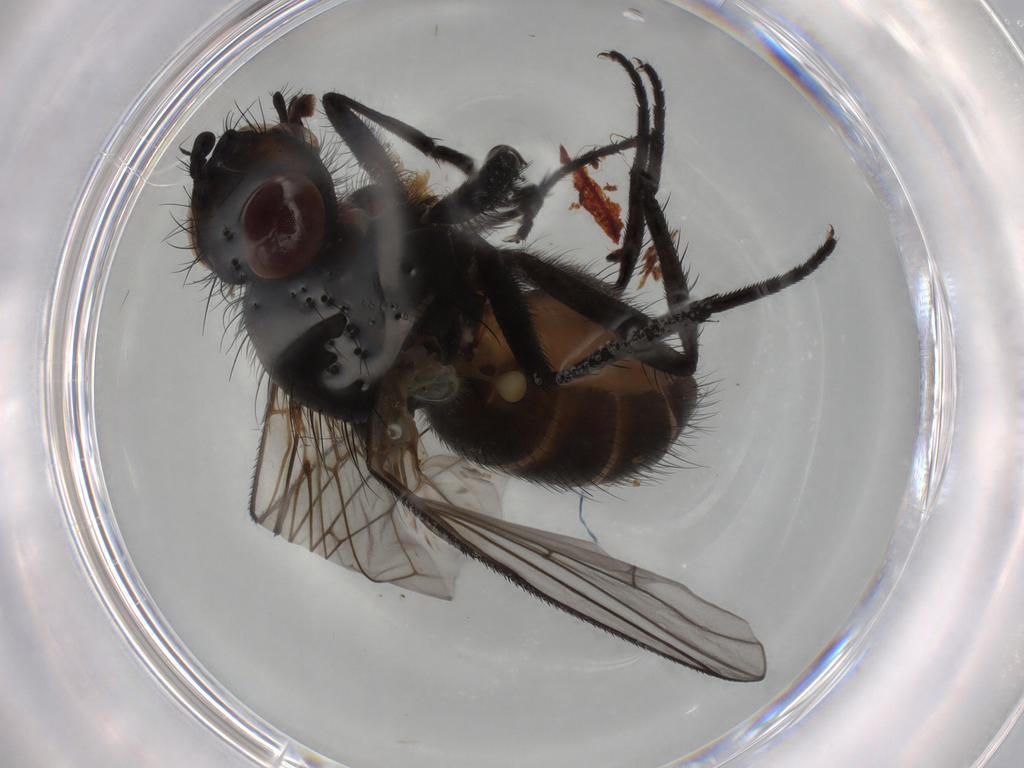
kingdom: Animalia
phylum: Arthropoda
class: Insecta
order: Diptera
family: Cecidomyiidae
